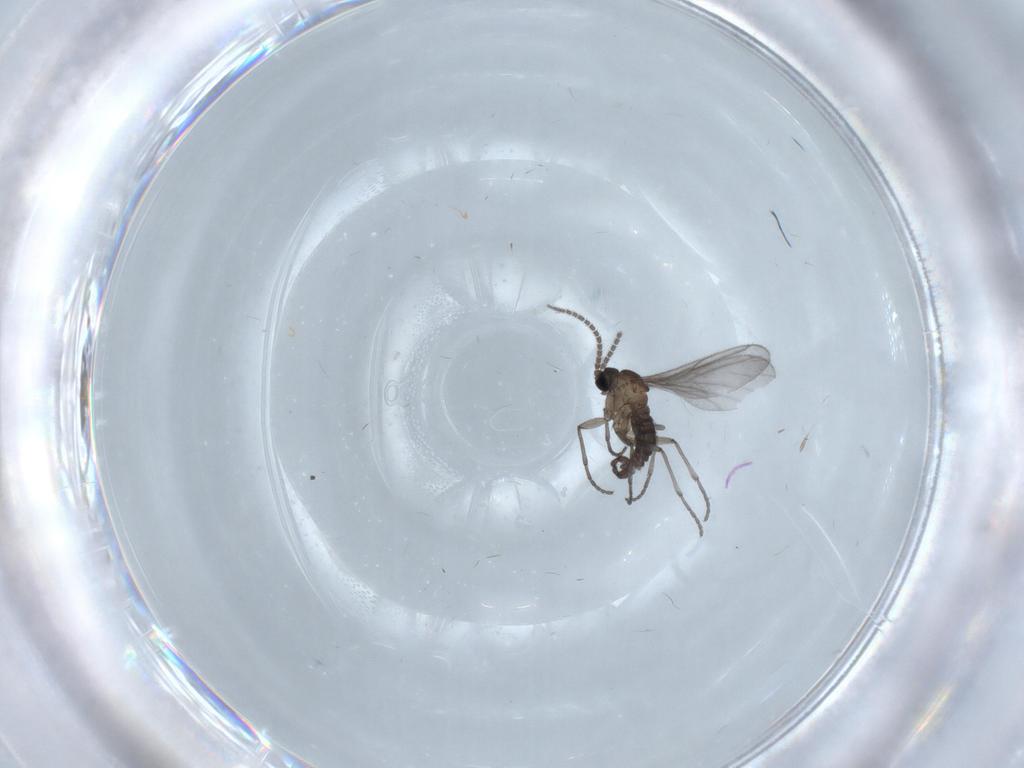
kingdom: Animalia
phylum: Arthropoda
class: Insecta
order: Diptera
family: Sciaridae
